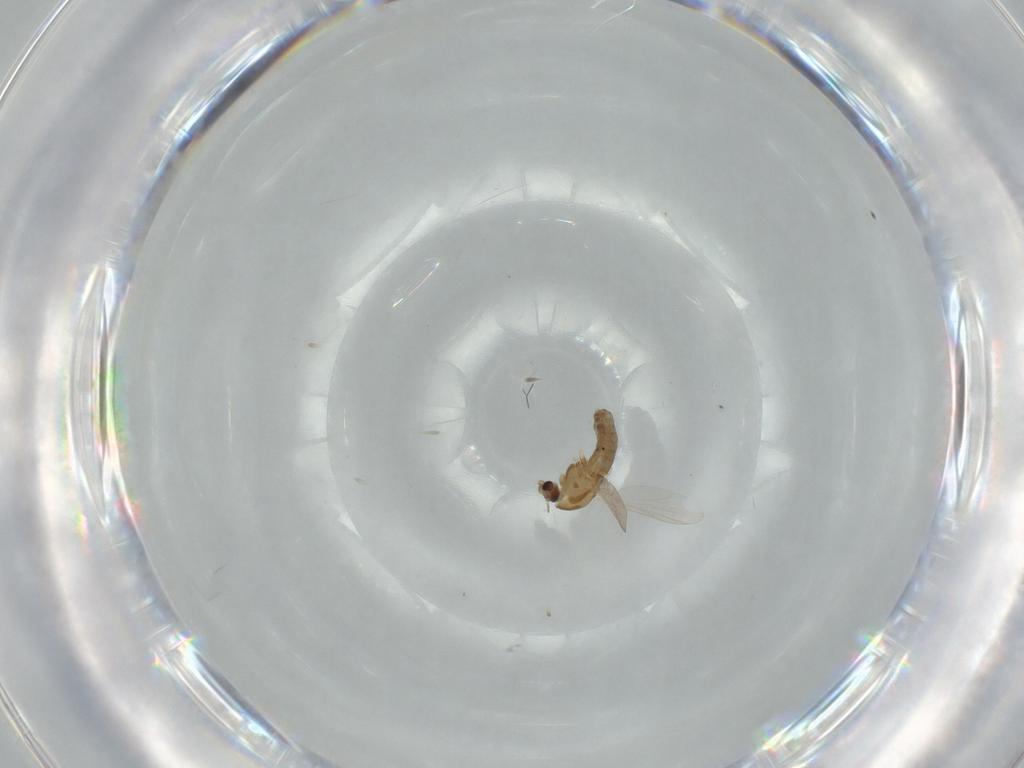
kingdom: Animalia
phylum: Arthropoda
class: Insecta
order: Diptera
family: Chironomidae
